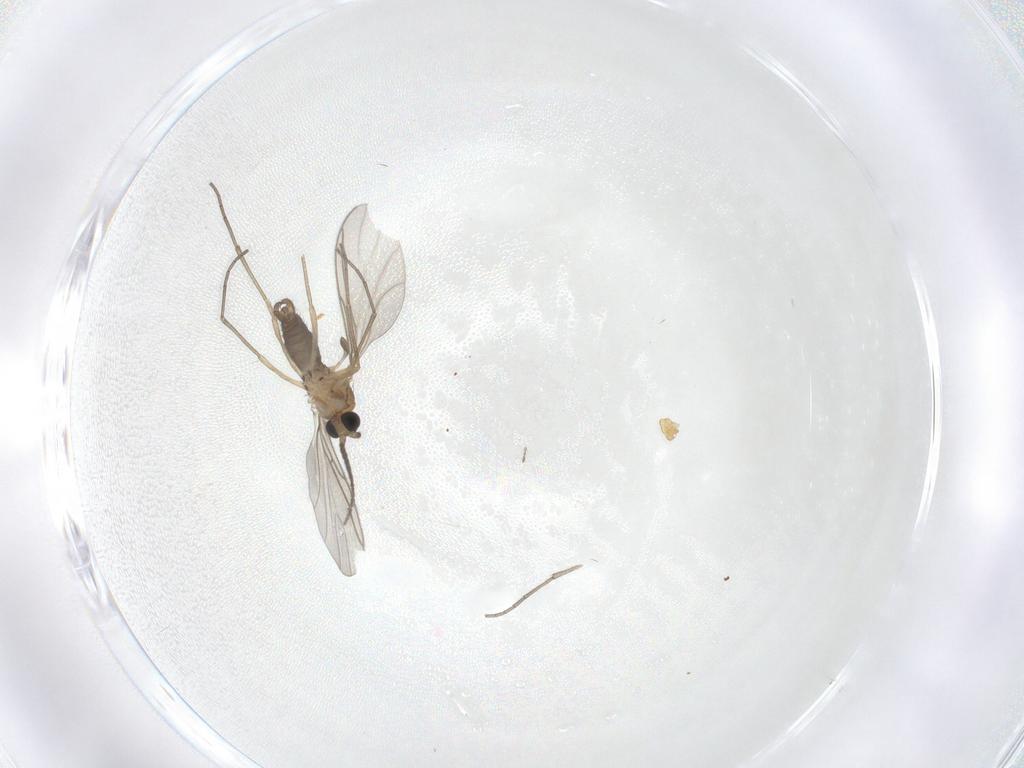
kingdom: Animalia
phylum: Arthropoda
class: Insecta
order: Diptera
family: Sciaridae
